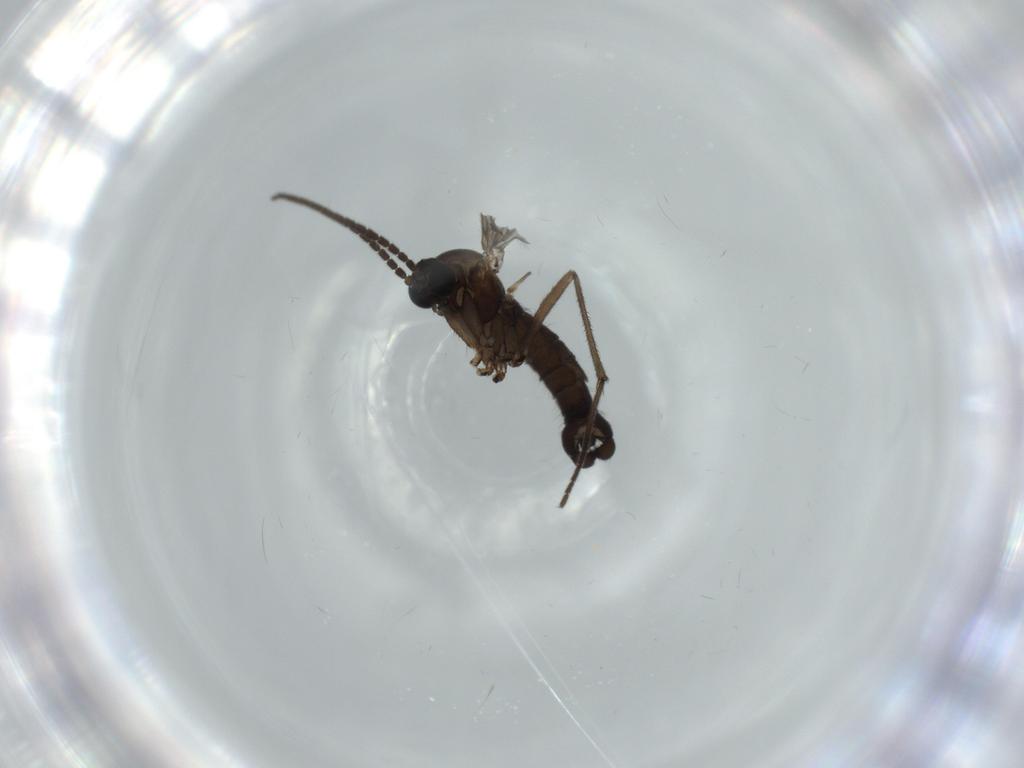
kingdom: Animalia
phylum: Arthropoda
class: Insecta
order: Diptera
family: Sciaridae
